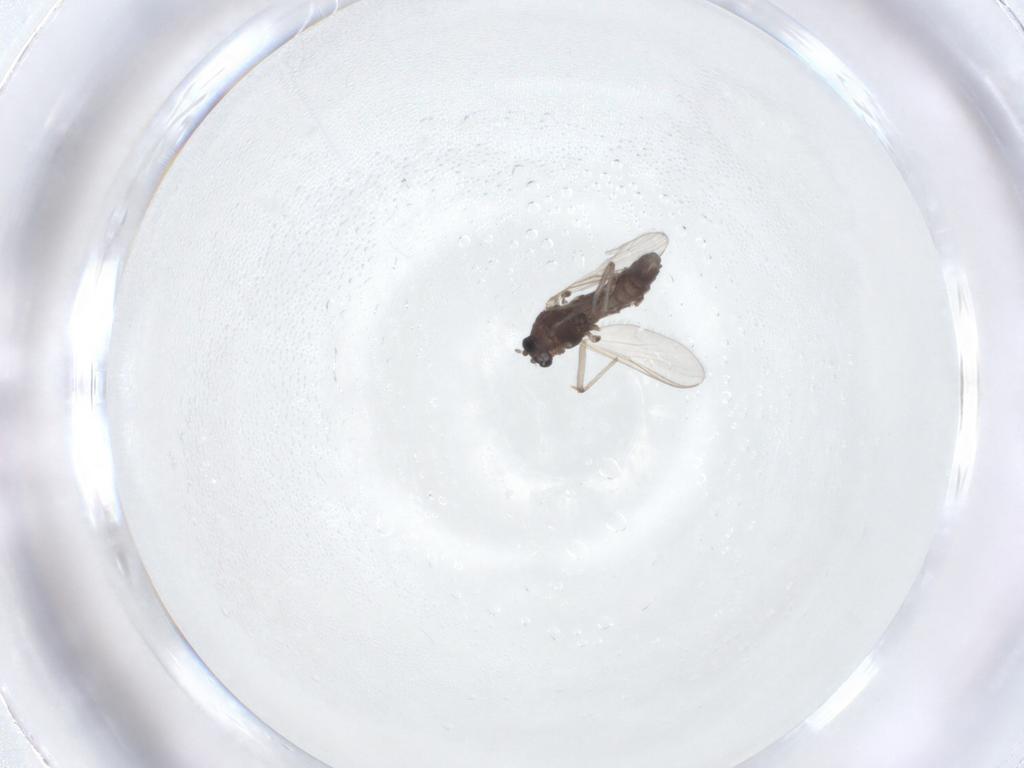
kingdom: Animalia
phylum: Arthropoda
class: Insecta
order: Diptera
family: Chironomidae
